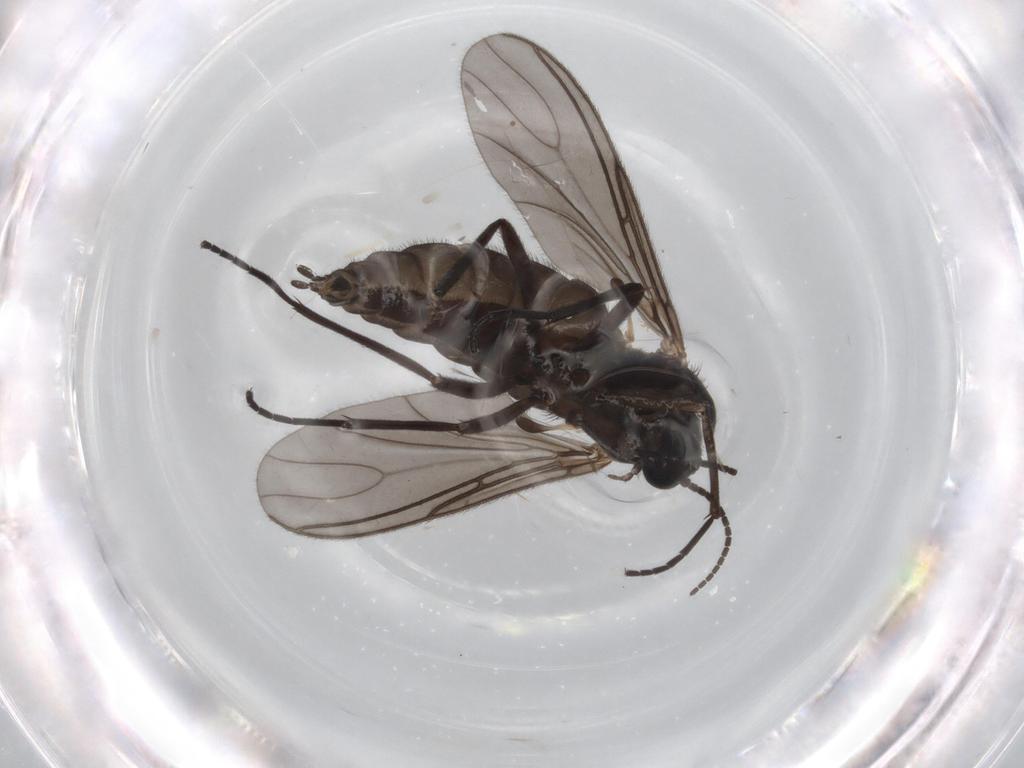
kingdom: Animalia
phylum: Arthropoda
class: Insecta
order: Diptera
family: Sciaridae
